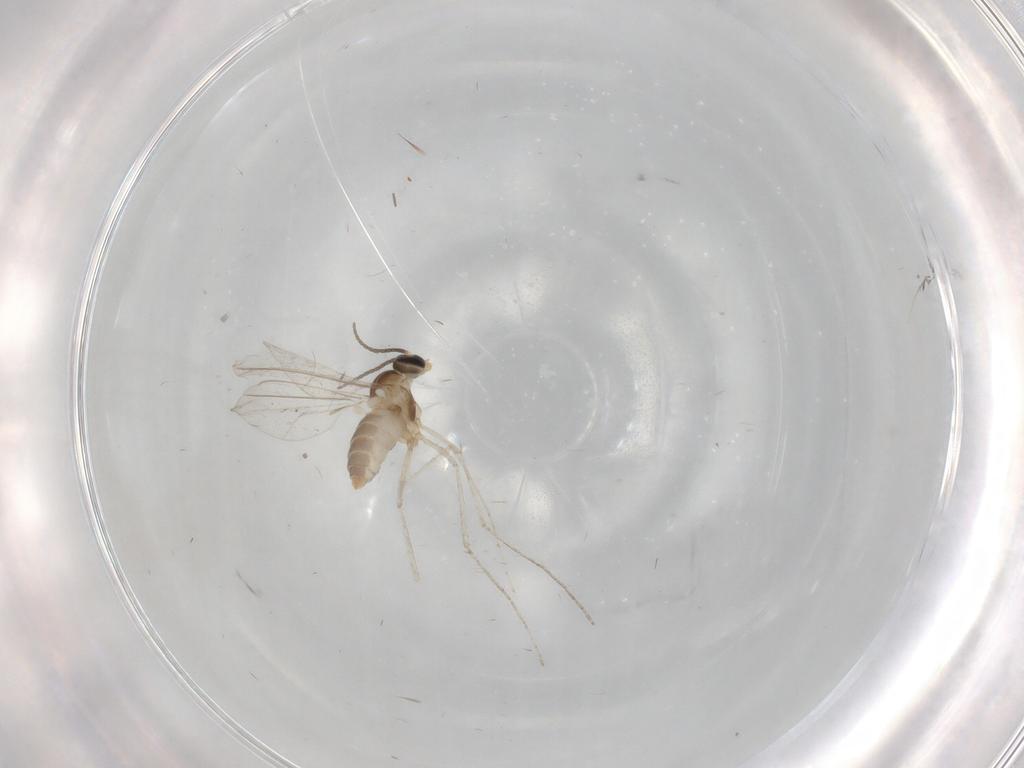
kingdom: Animalia
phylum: Arthropoda
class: Insecta
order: Diptera
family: Cecidomyiidae
